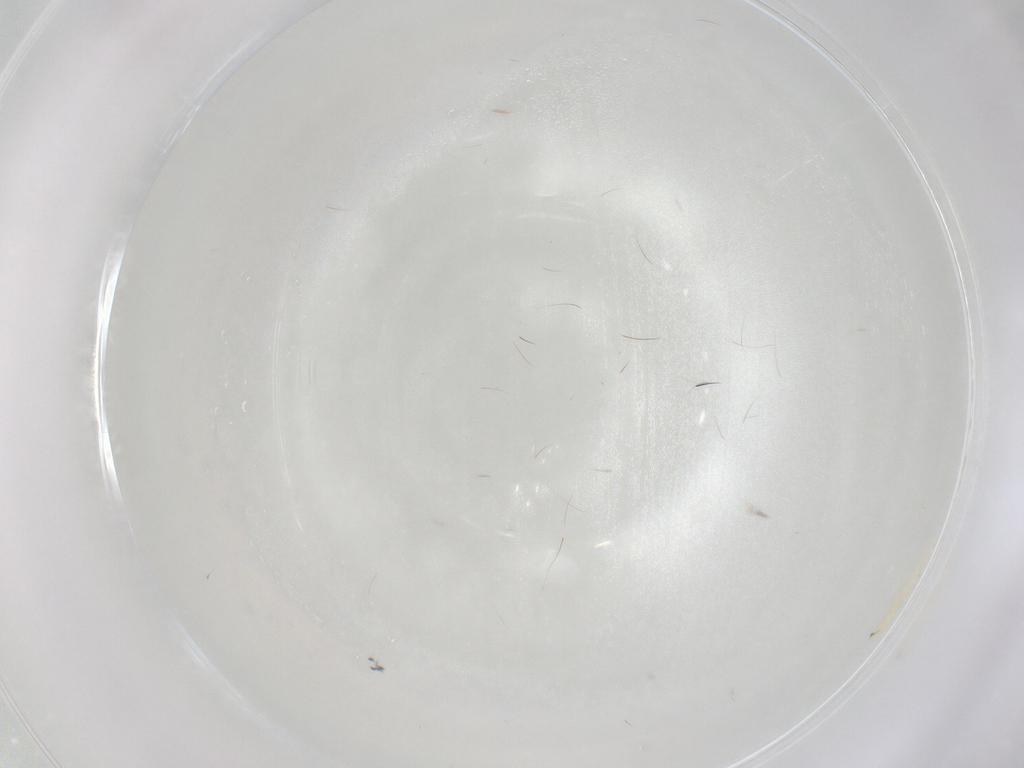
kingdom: Animalia
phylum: Arthropoda
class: Insecta
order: Diptera
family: Tachinidae
